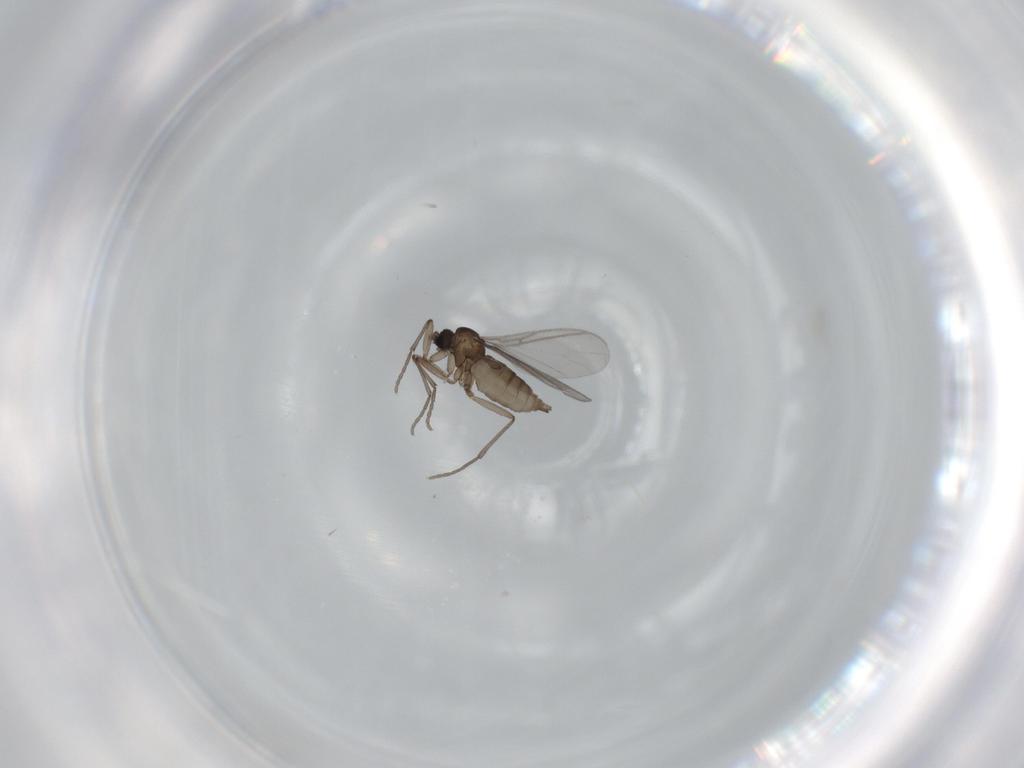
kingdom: Animalia
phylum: Arthropoda
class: Insecta
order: Diptera
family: Sciaridae
